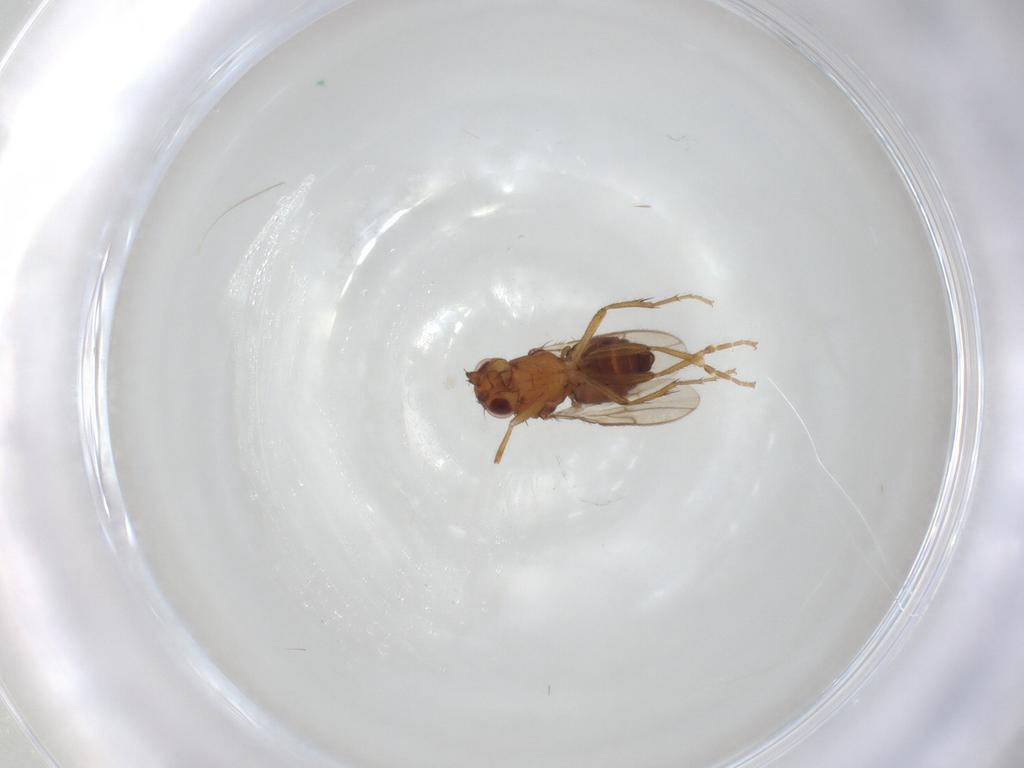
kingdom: Animalia
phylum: Arthropoda
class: Insecta
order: Diptera
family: Sphaeroceridae
